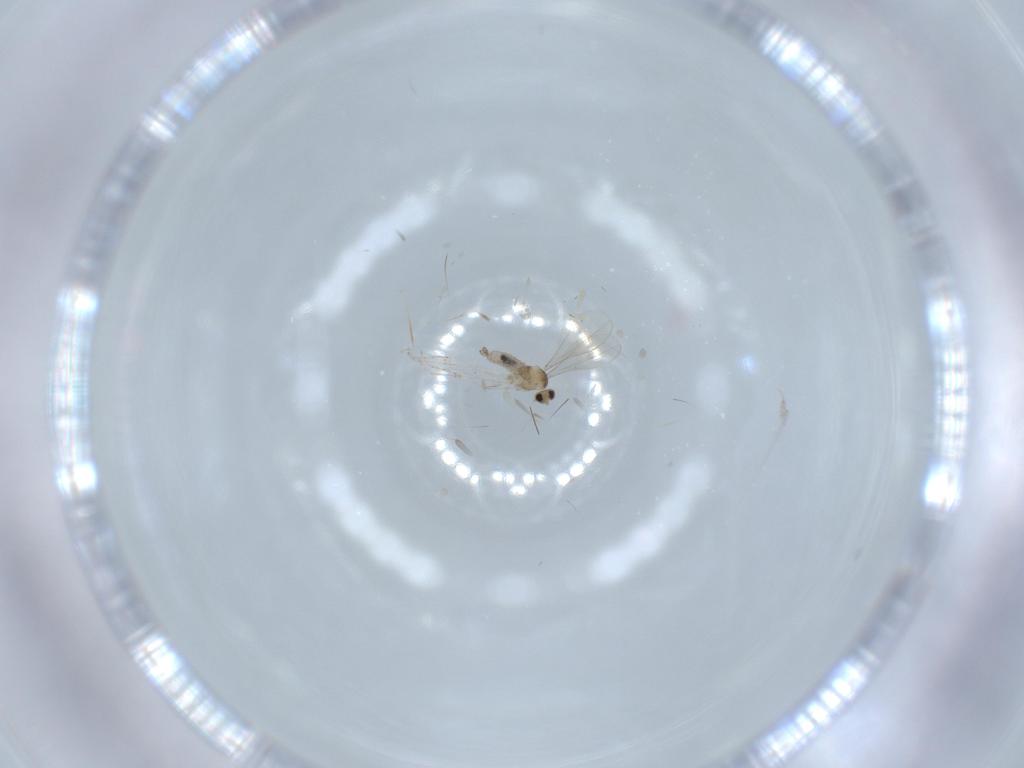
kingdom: Animalia
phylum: Arthropoda
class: Insecta
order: Diptera
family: Cecidomyiidae
